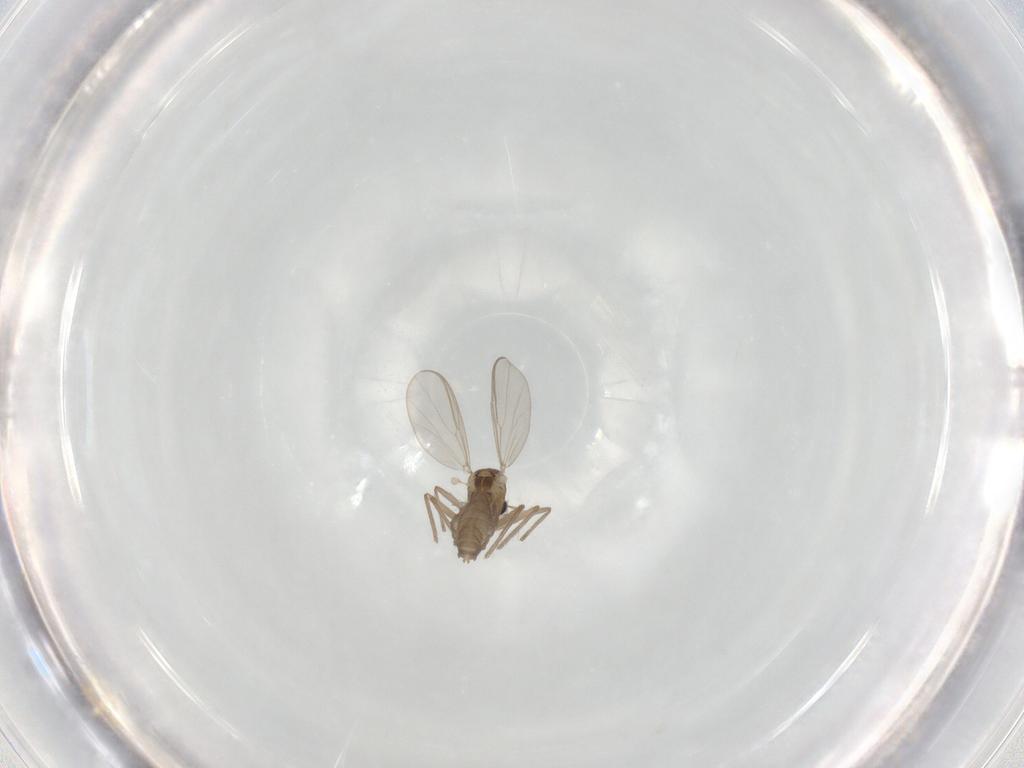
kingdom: Animalia
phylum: Arthropoda
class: Insecta
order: Diptera
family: Chironomidae
